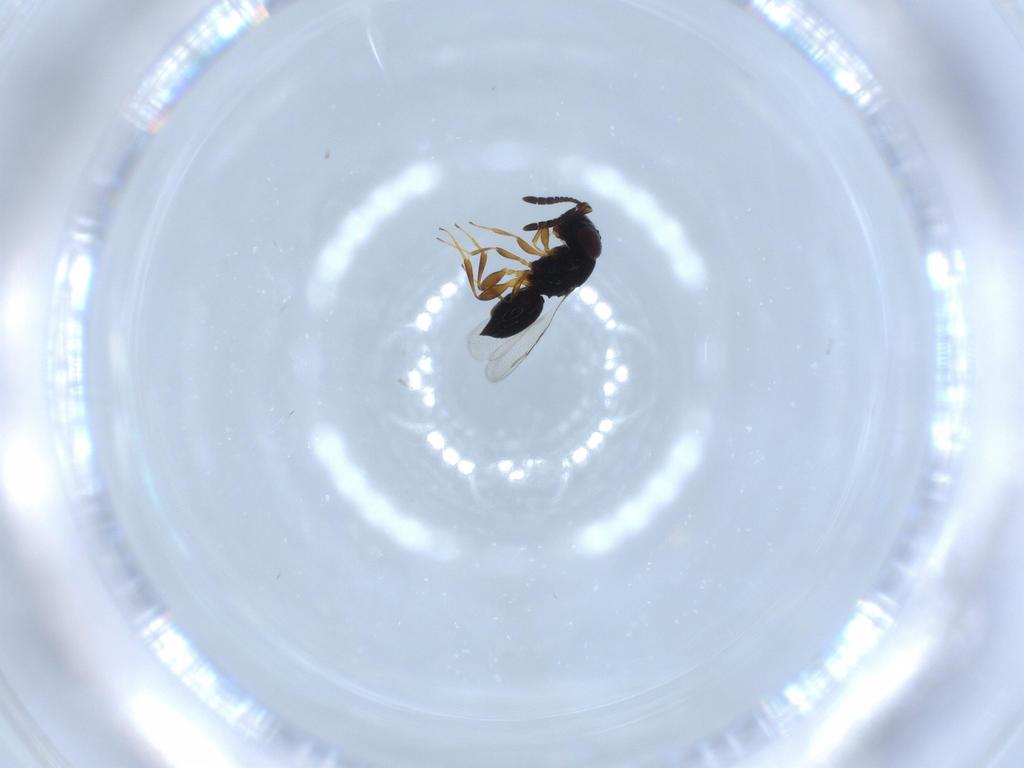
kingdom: Animalia
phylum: Arthropoda
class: Insecta
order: Hymenoptera
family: Ceraphronidae
